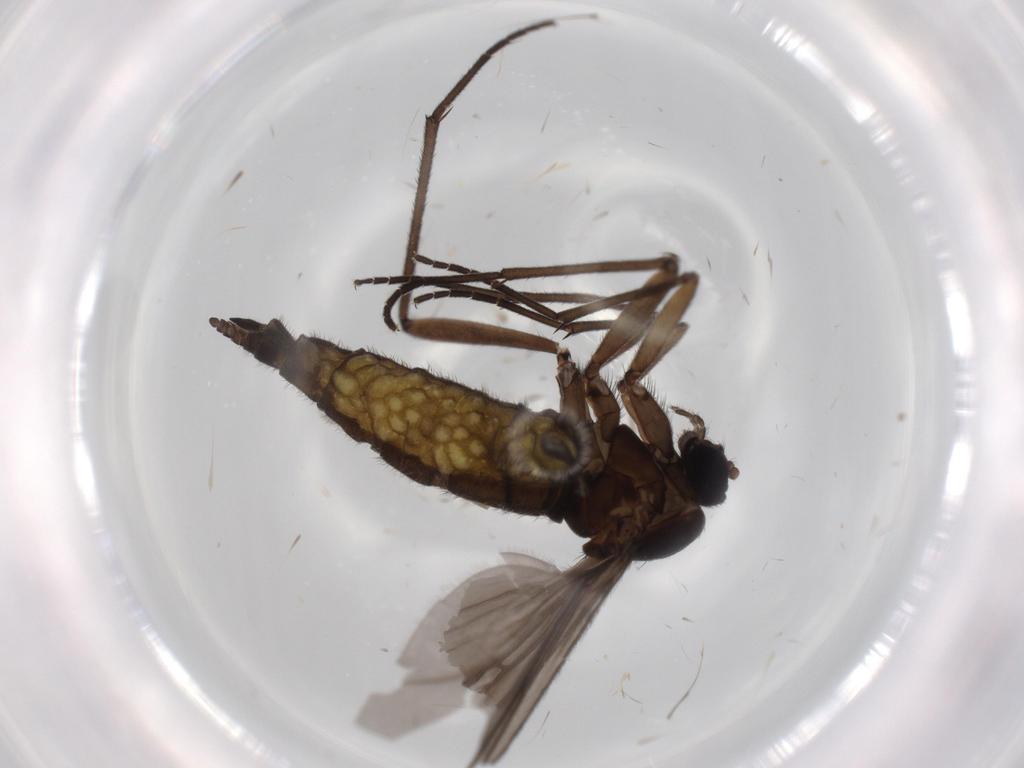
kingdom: Animalia
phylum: Arthropoda
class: Insecta
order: Diptera
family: Sciaridae
